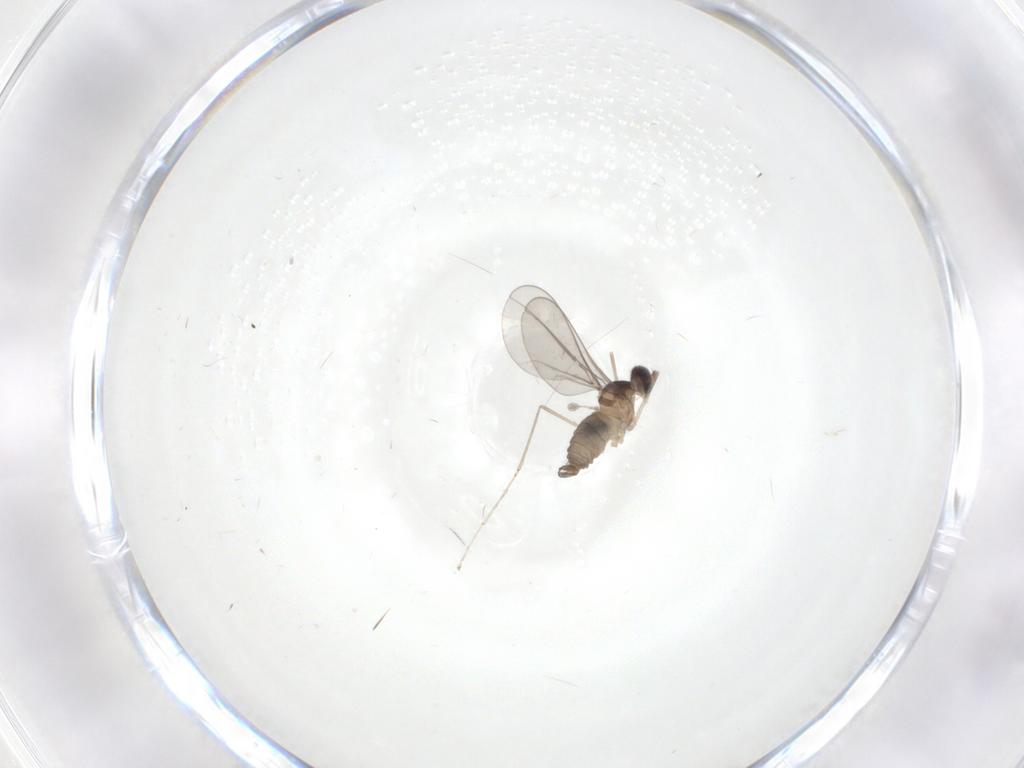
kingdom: Animalia
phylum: Arthropoda
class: Insecta
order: Diptera
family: Cecidomyiidae
